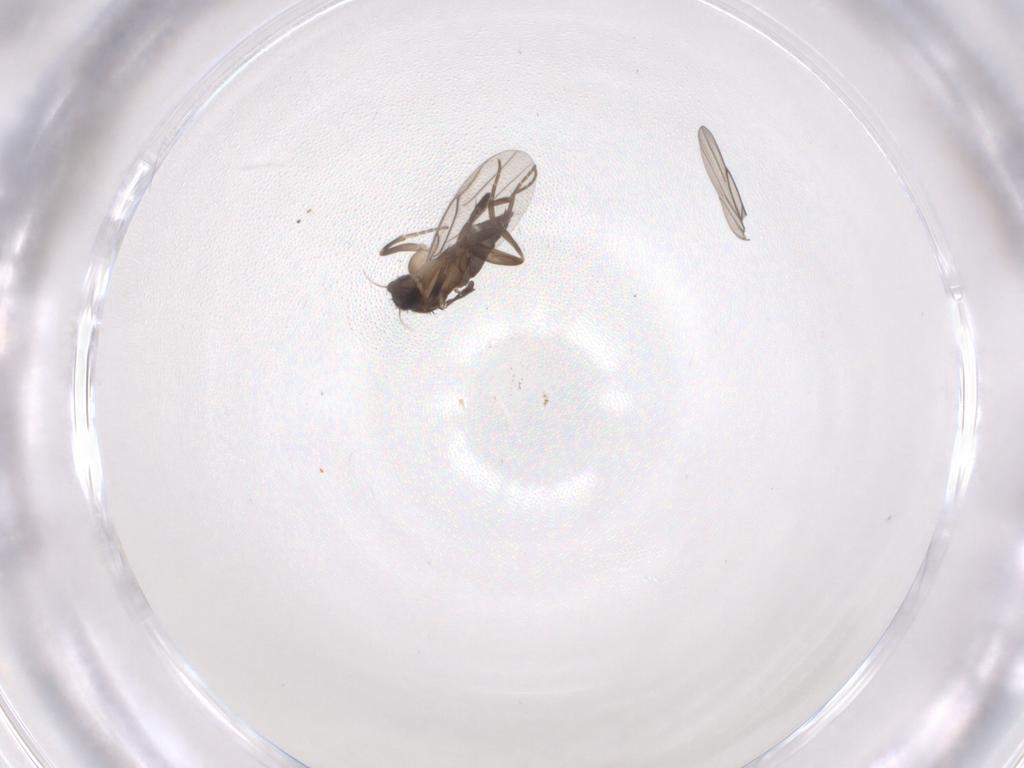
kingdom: Animalia
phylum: Arthropoda
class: Insecta
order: Diptera
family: Phoridae
